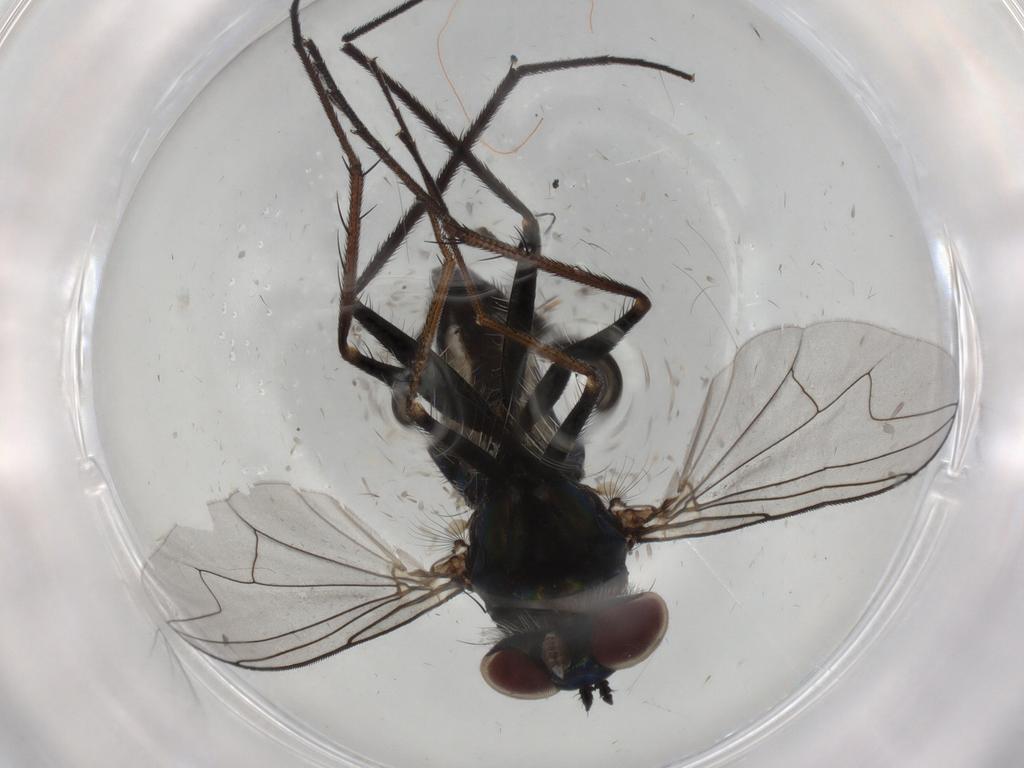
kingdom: Animalia
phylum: Arthropoda
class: Insecta
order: Diptera
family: Dolichopodidae
